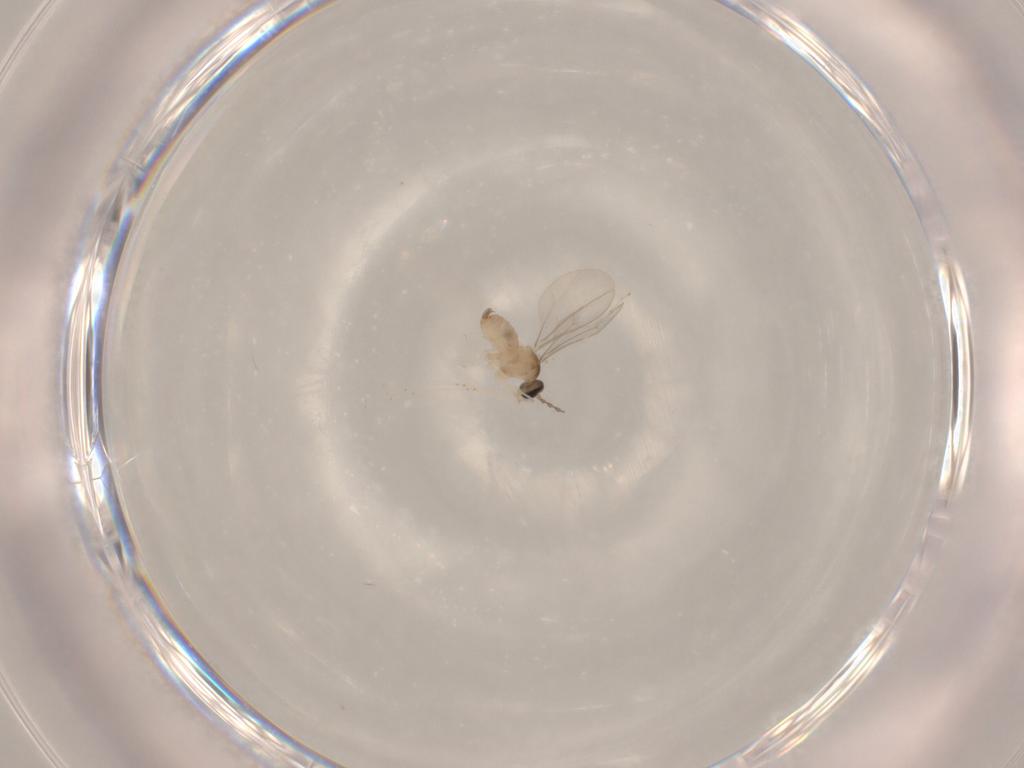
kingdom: Animalia
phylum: Arthropoda
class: Insecta
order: Diptera
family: Cecidomyiidae
